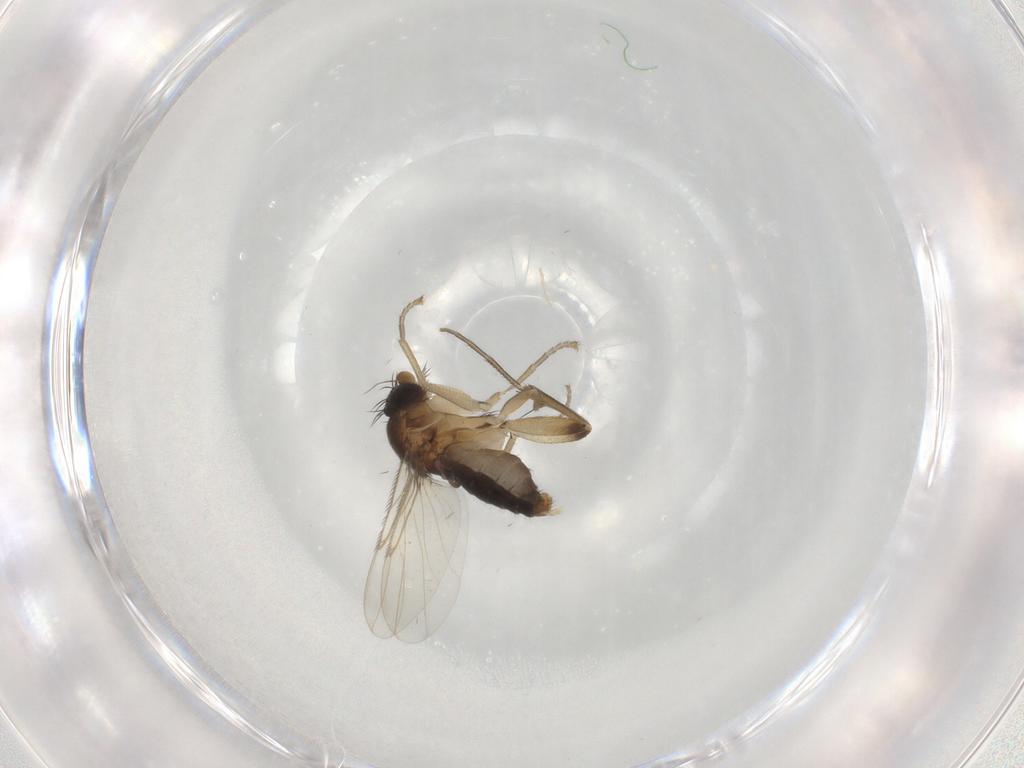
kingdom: Animalia
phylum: Arthropoda
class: Insecta
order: Diptera
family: Phoridae
